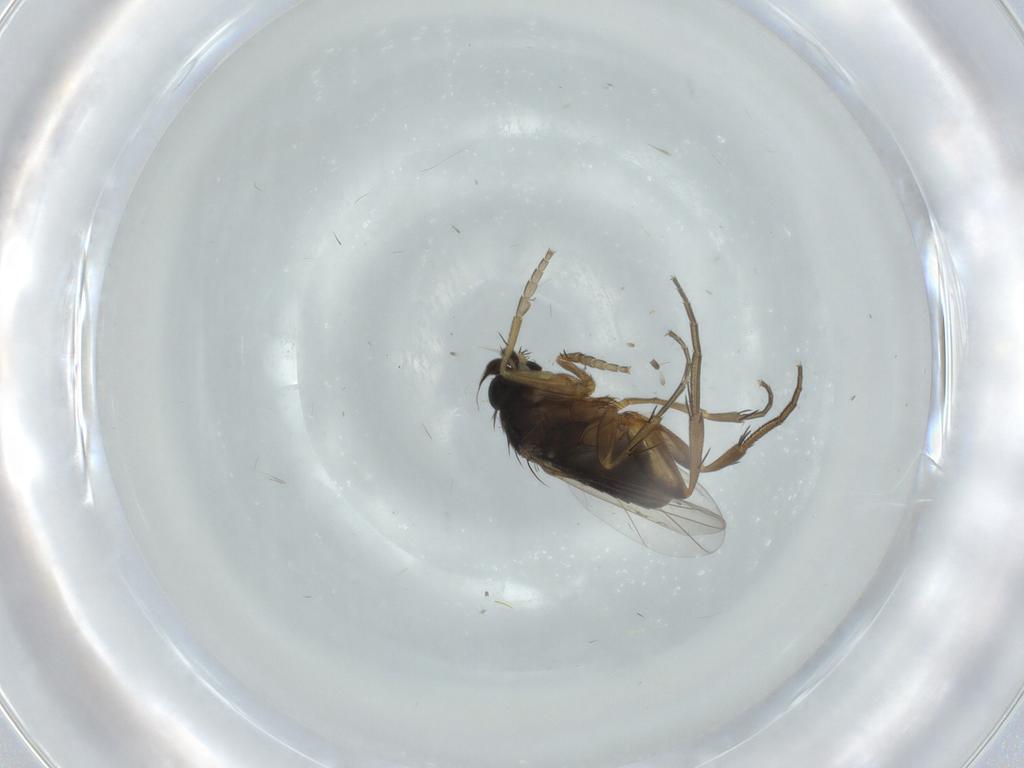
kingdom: Animalia
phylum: Arthropoda
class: Insecta
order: Diptera
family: Phoridae
